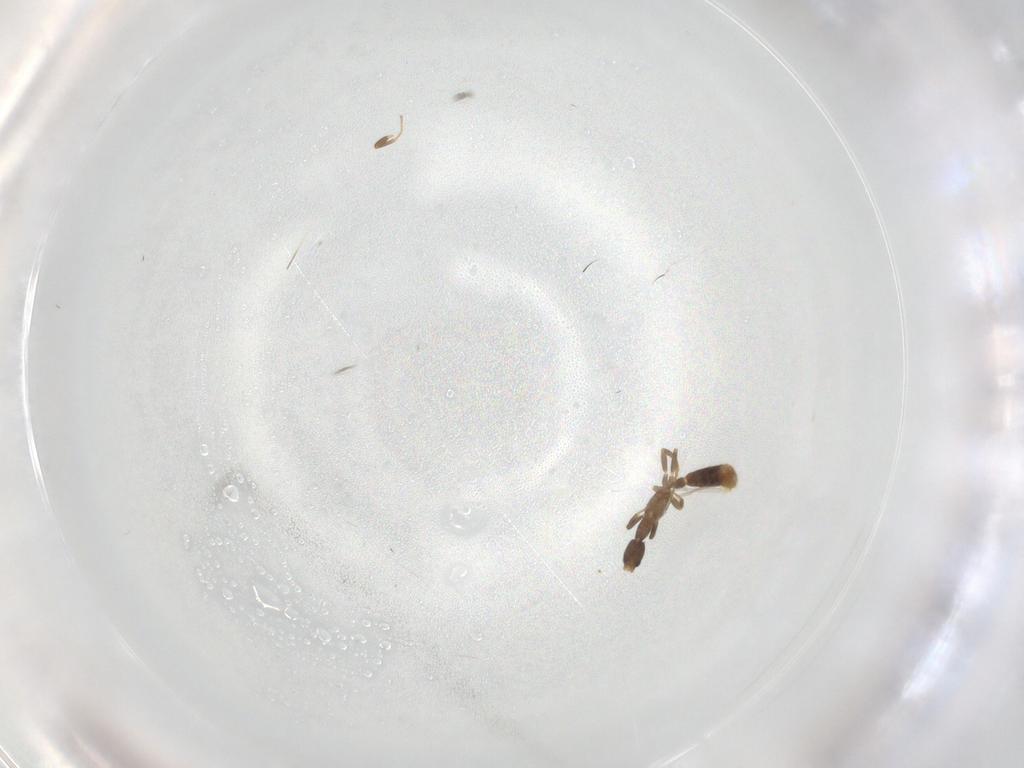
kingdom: Animalia
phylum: Arthropoda
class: Insecta
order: Hymenoptera
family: Formicidae
